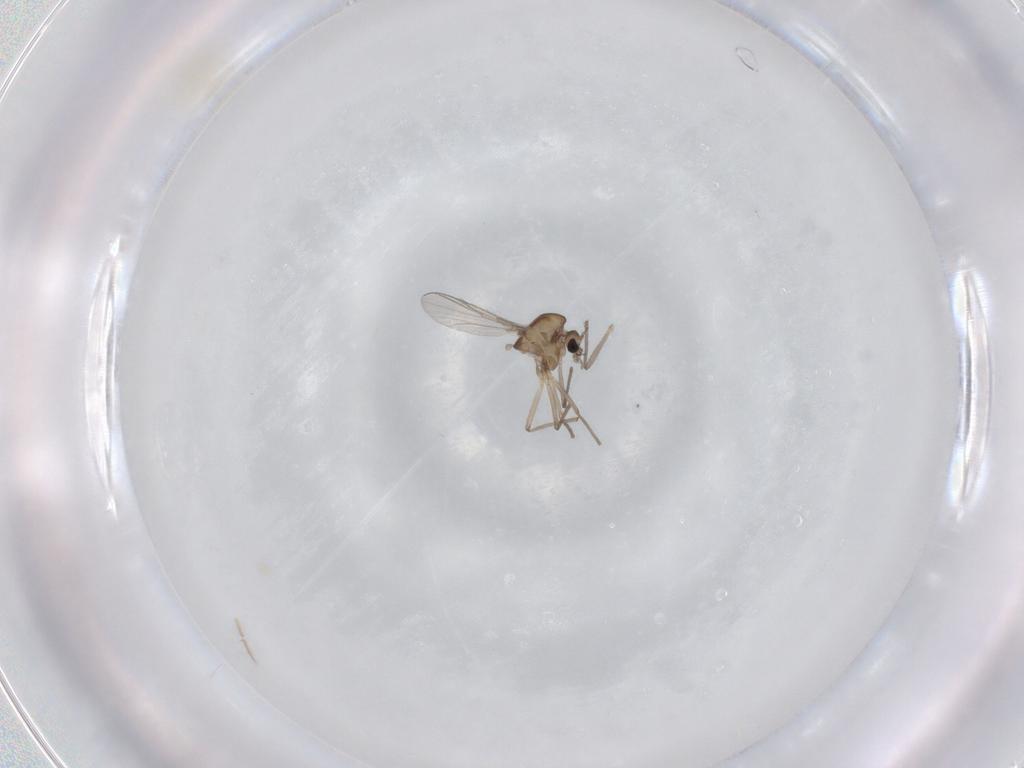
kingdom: Animalia
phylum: Arthropoda
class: Insecta
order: Diptera
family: Chironomidae
